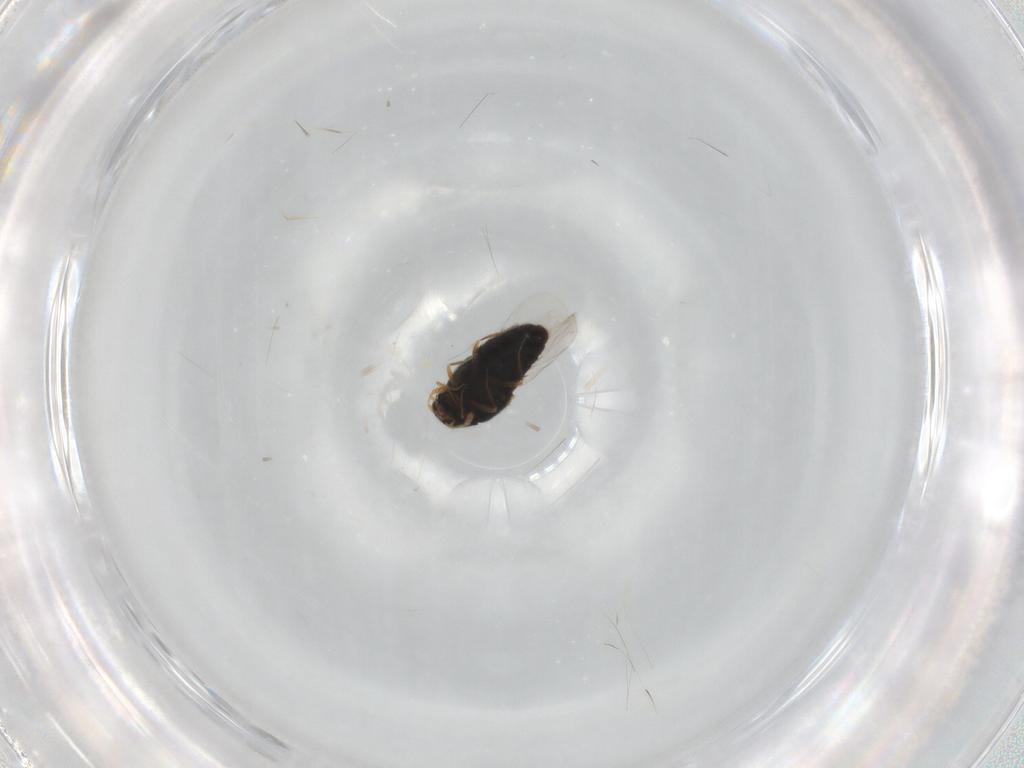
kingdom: Animalia
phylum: Arthropoda
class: Insecta
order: Coleoptera
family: Staphylinidae
